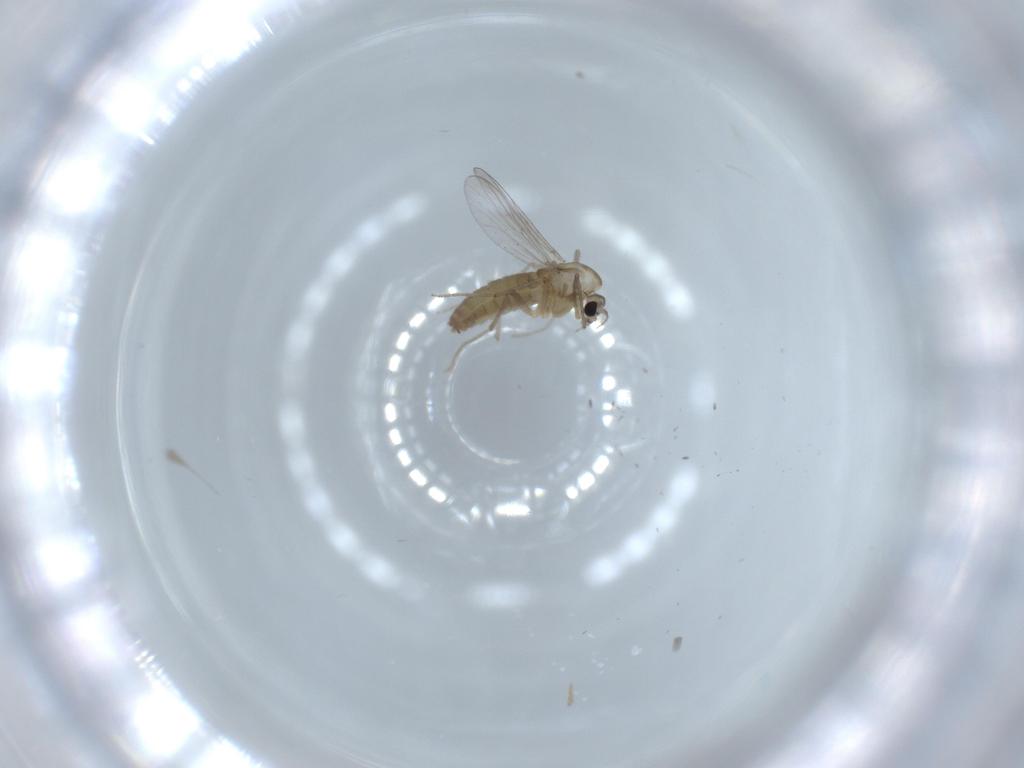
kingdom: Animalia
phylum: Arthropoda
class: Insecta
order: Diptera
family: Chironomidae
